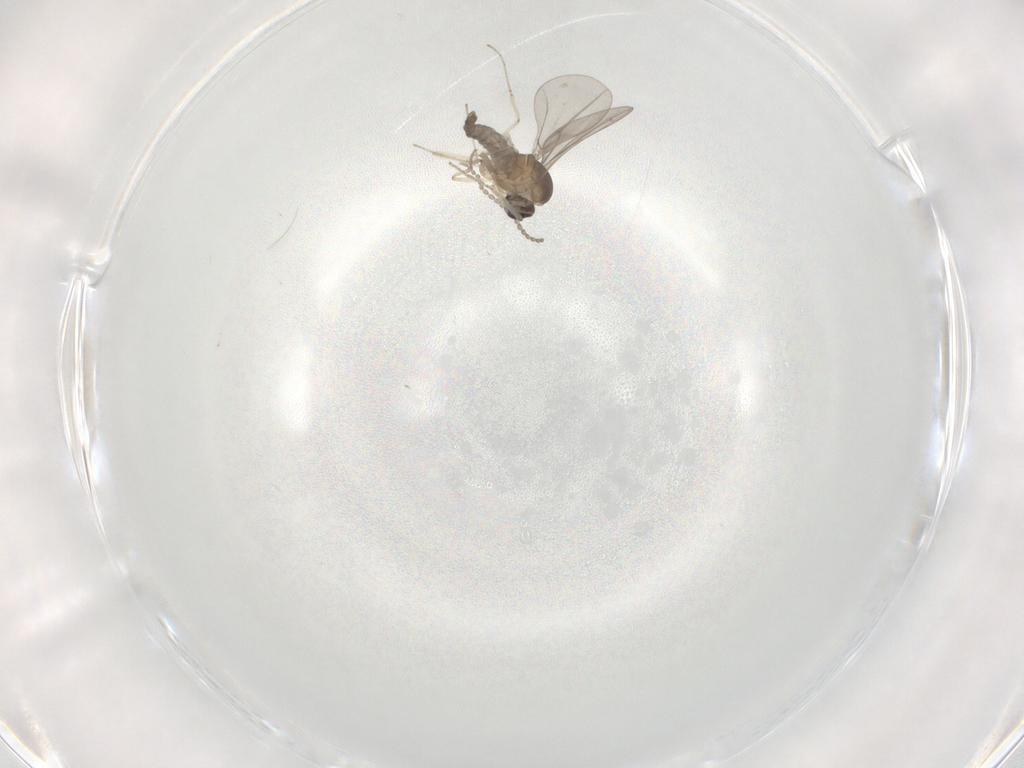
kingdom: Animalia
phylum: Arthropoda
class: Insecta
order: Diptera
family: Cecidomyiidae
